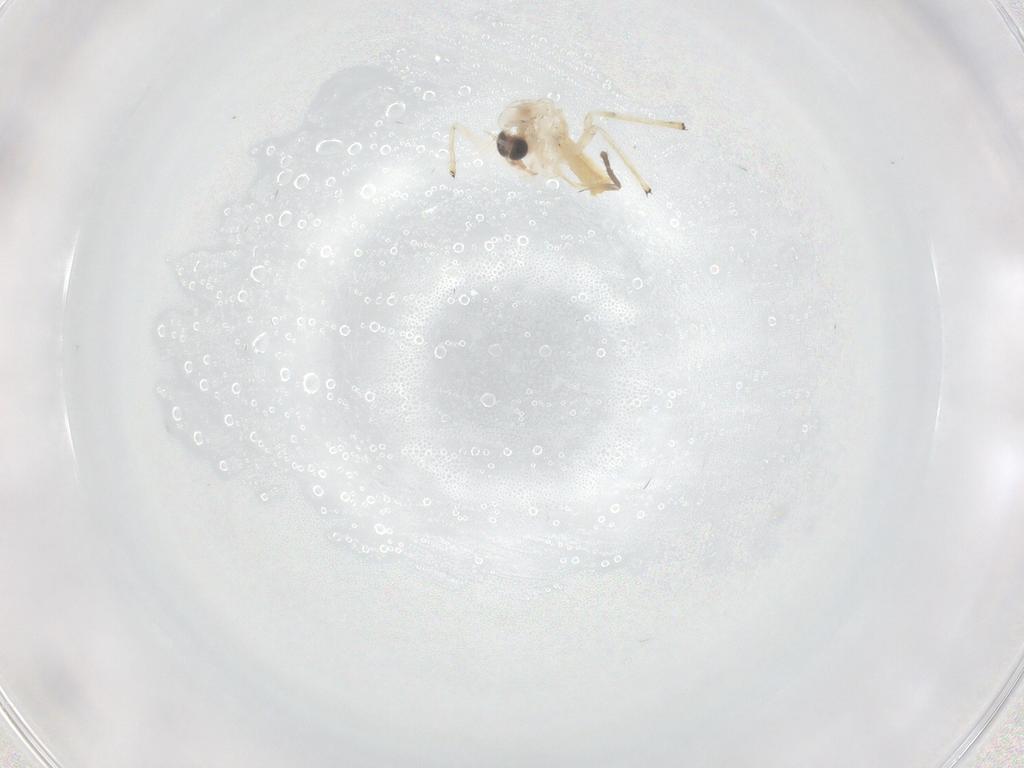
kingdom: Animalia
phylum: Arthropoda
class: Insecta
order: Diptera
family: Chironomidae
